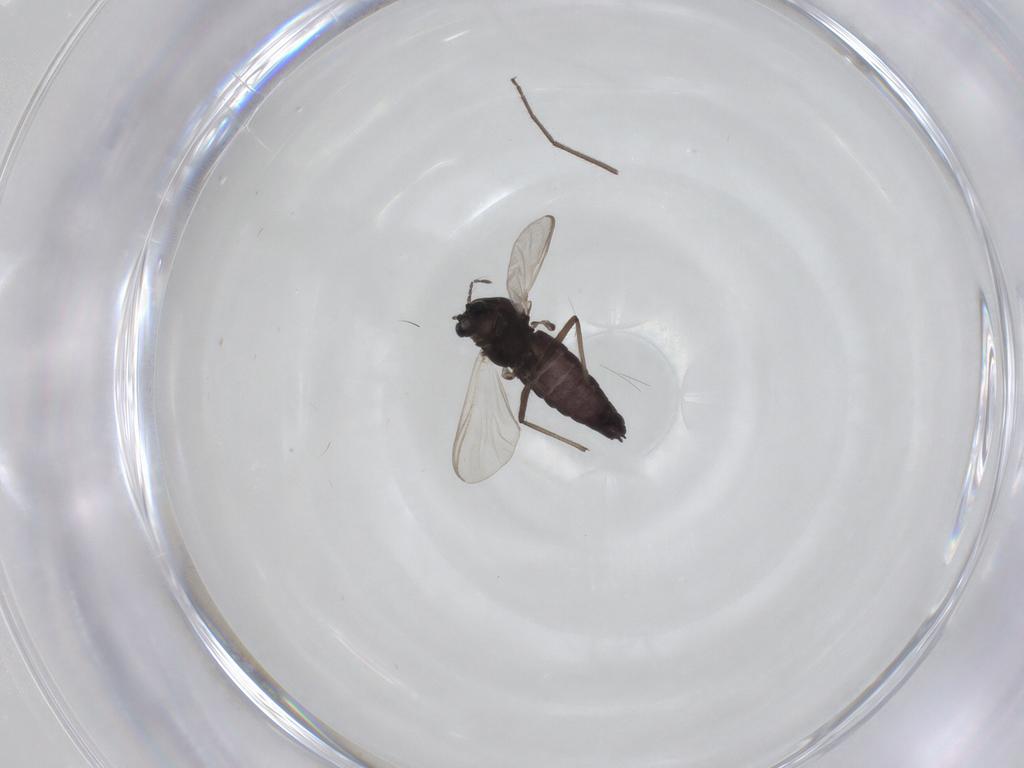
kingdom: Animalia
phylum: Arthropoda
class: Insecta
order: Diptera
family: Chironomidae
